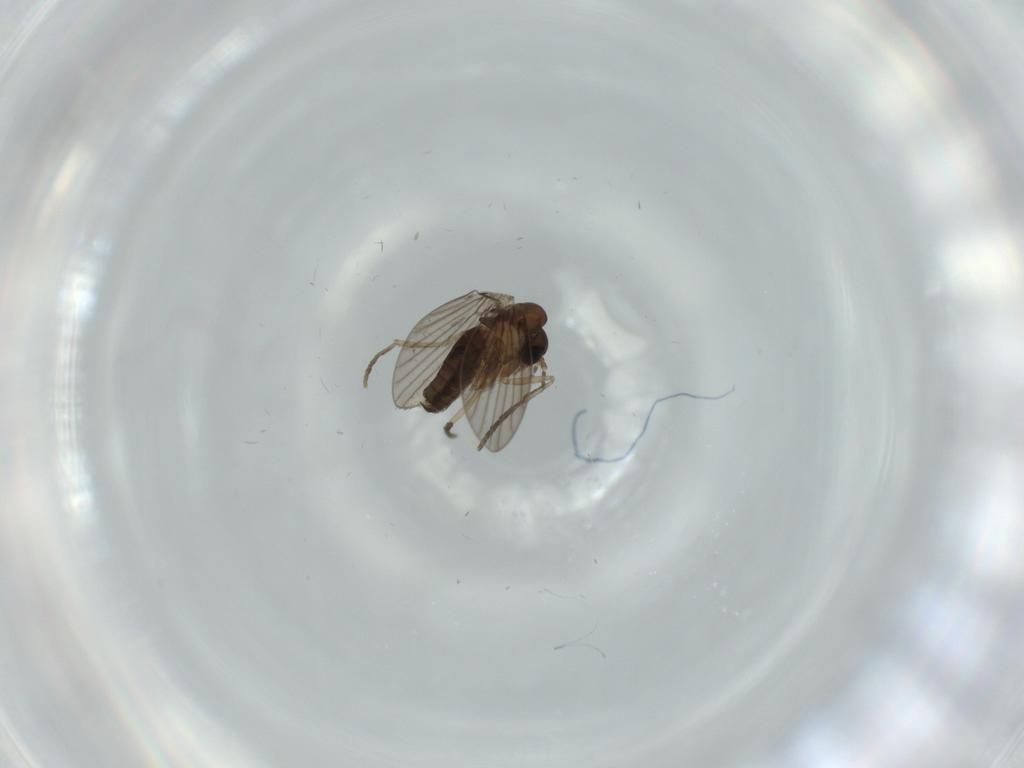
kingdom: Animalia
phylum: Arthropoda
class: Insecta
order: Diptera
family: Psychodidae
